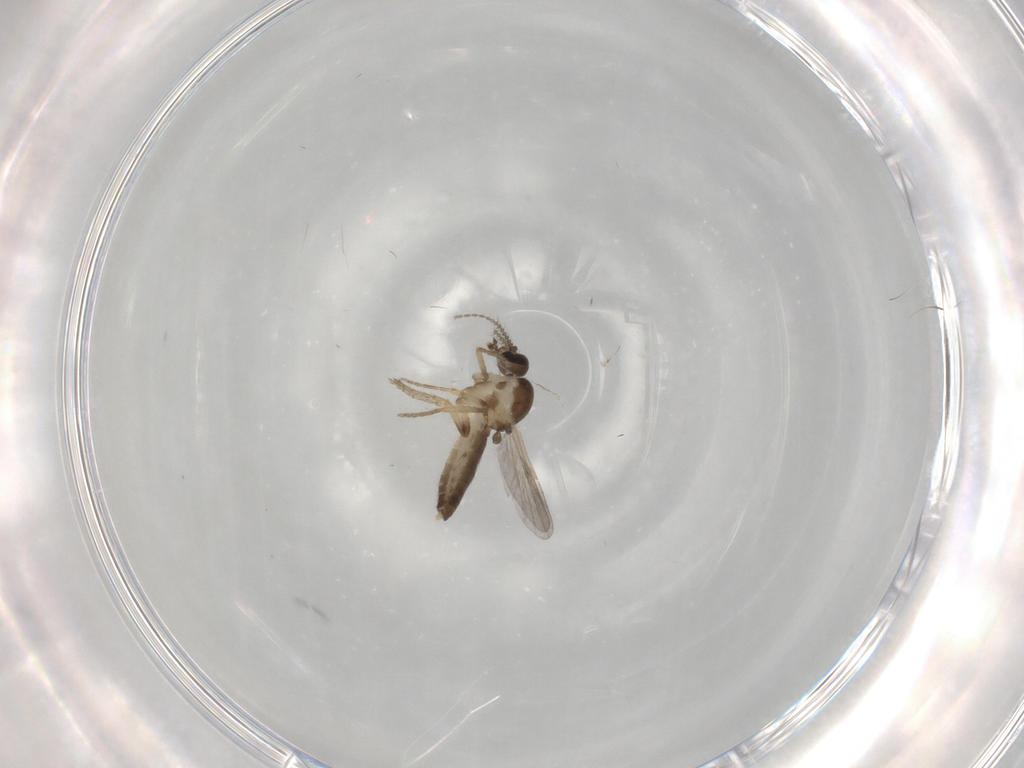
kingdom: Animalia
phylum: Arthropoda
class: Insecta
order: Diptera
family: Ceratopogonidae
